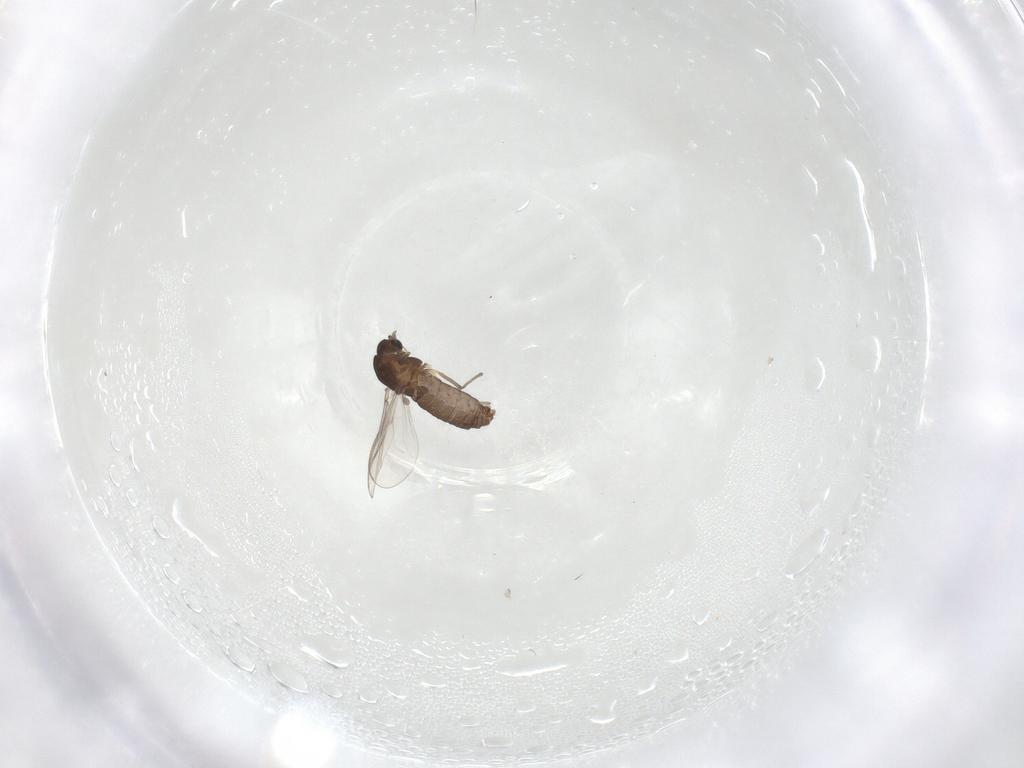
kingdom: Animalia
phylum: Arthropoda
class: Insecta
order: Diptera
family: Chironomidae
